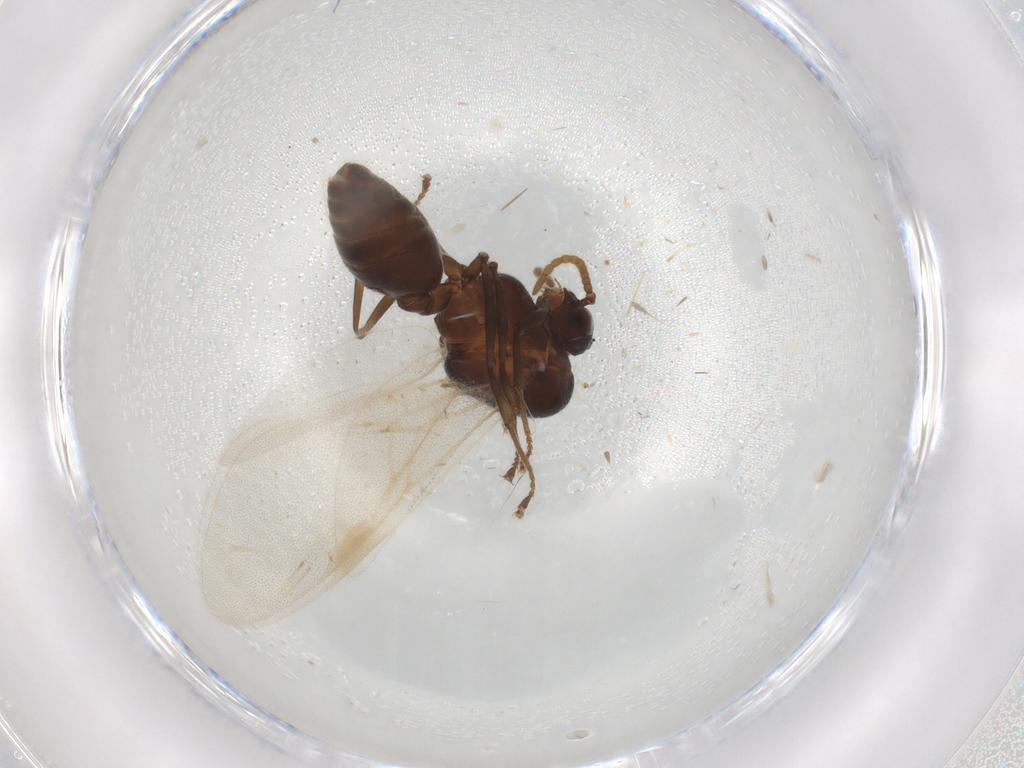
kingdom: Animalia
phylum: Arthropoda
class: Insecta
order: Hymenoptera
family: Formicidae
